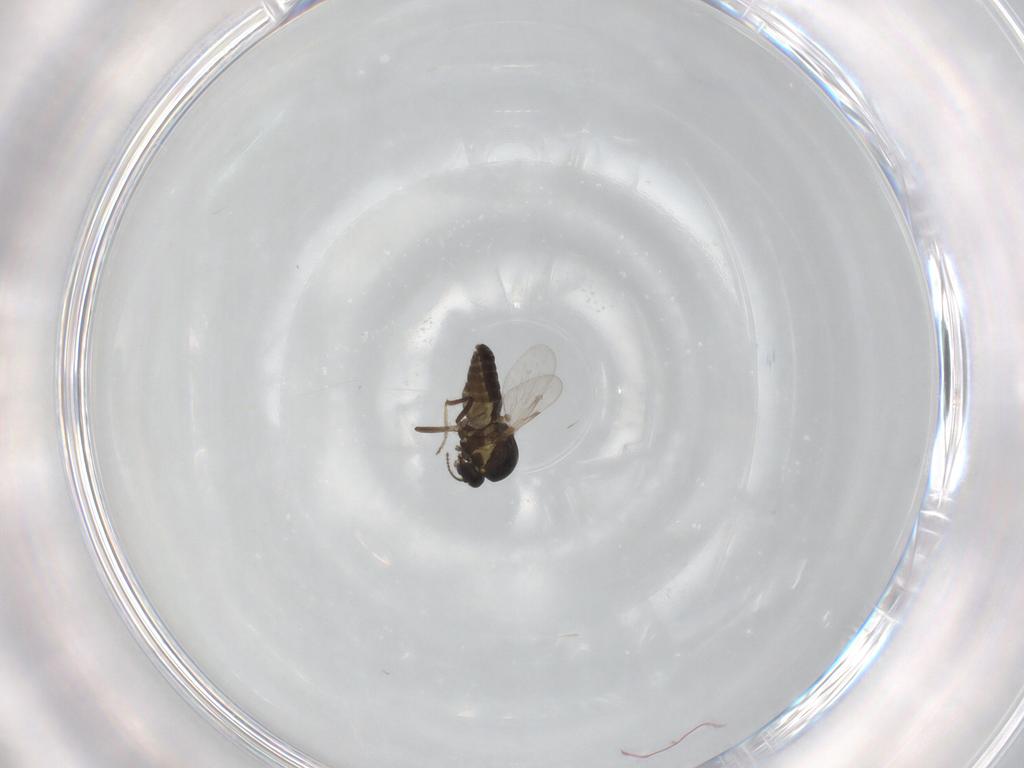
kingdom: Animalia
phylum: Arthropoda
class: Insecta
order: Diptera
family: Ceratopogonidae
